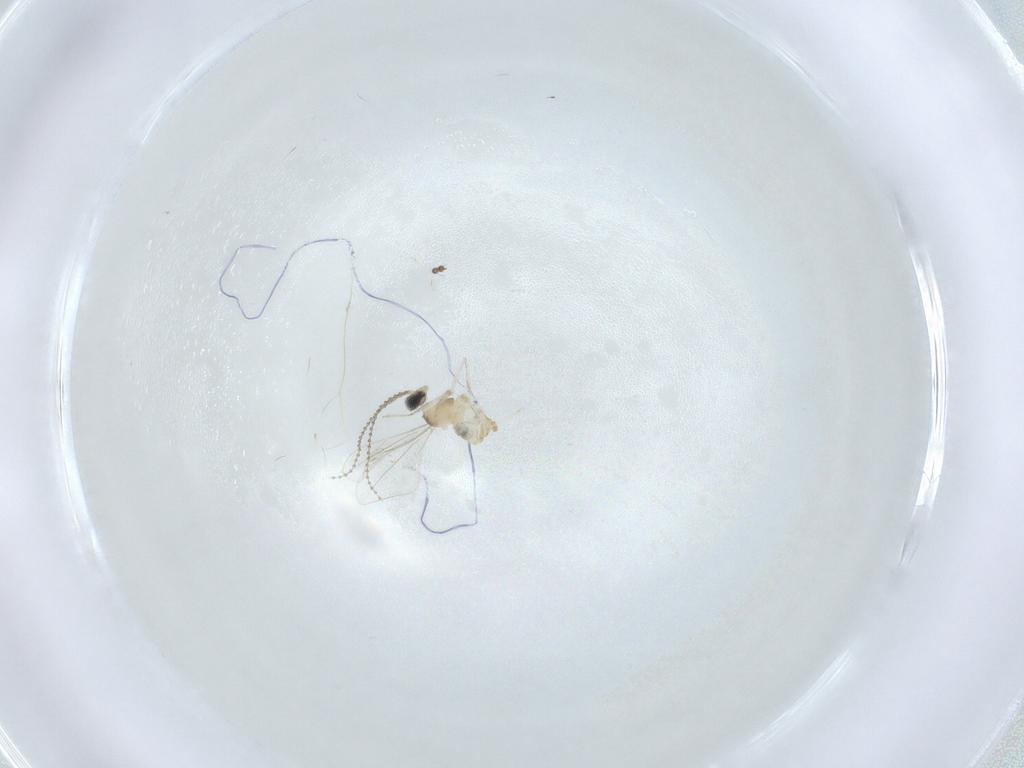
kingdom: Animalia
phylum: Arthropoda
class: Insecta
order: Diptera
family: Cecidomyiidae
